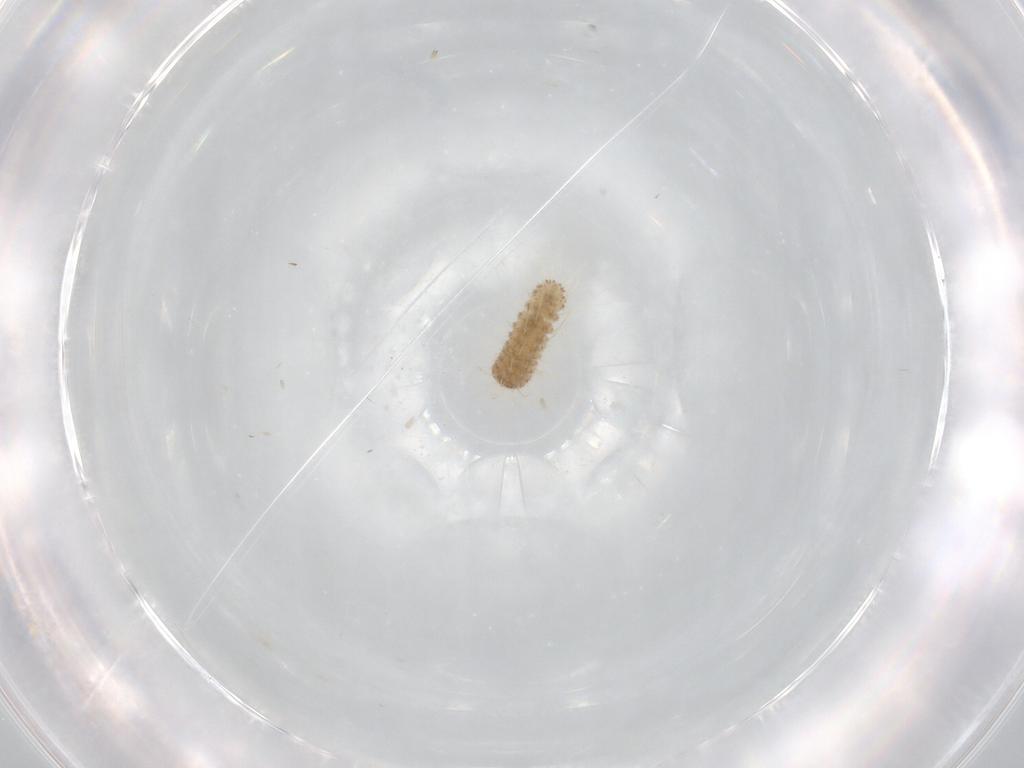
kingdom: Animalia
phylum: Arthropoda
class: Insecta
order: Lepidoptera
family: Lycaenidae
